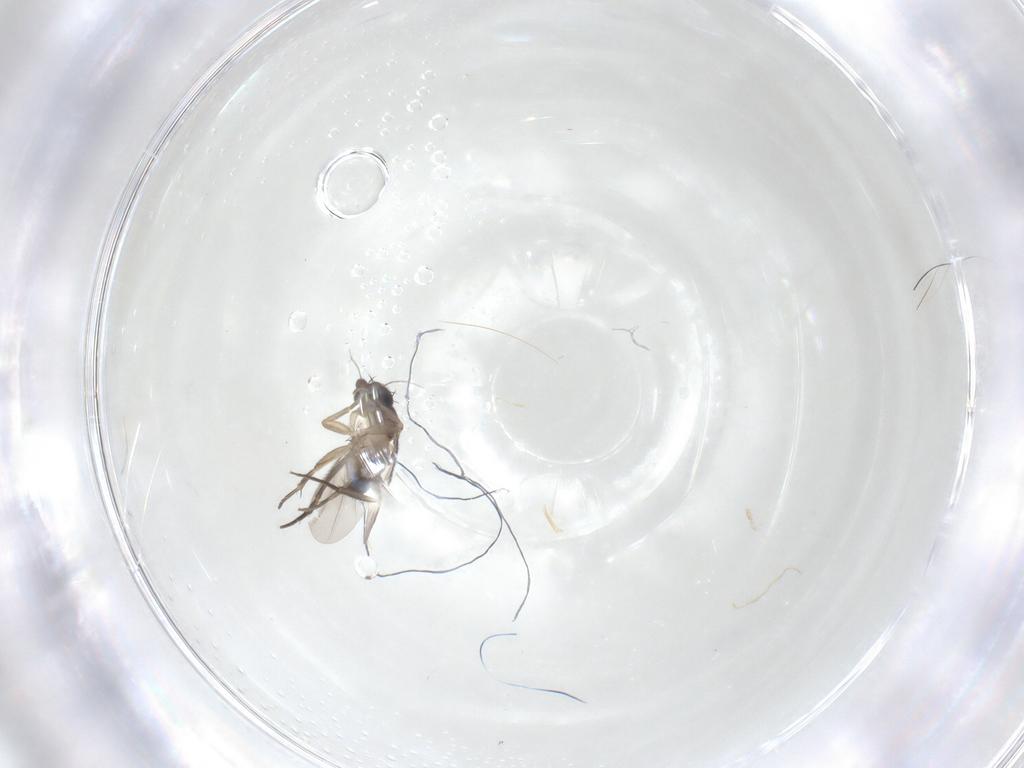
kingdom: Animalia
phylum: Arthropoda
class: Insecta
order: Diptera
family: Phoridae
